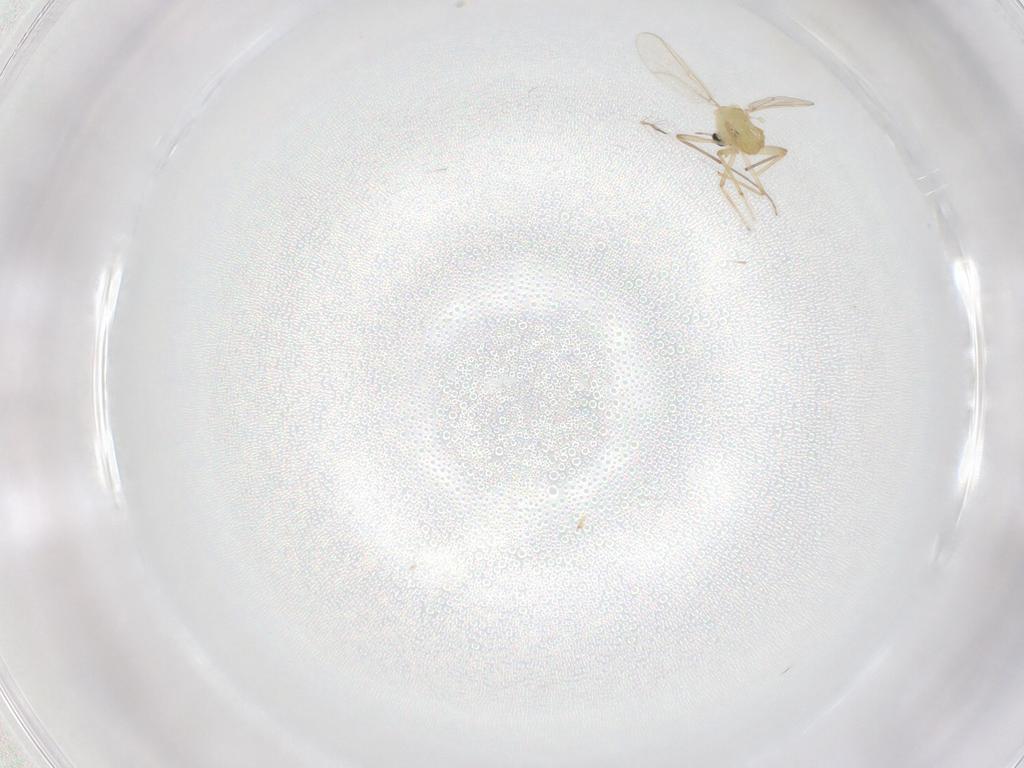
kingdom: Animalia
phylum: Arthropoda
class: Insecta
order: Diptera
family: Chironomidae
